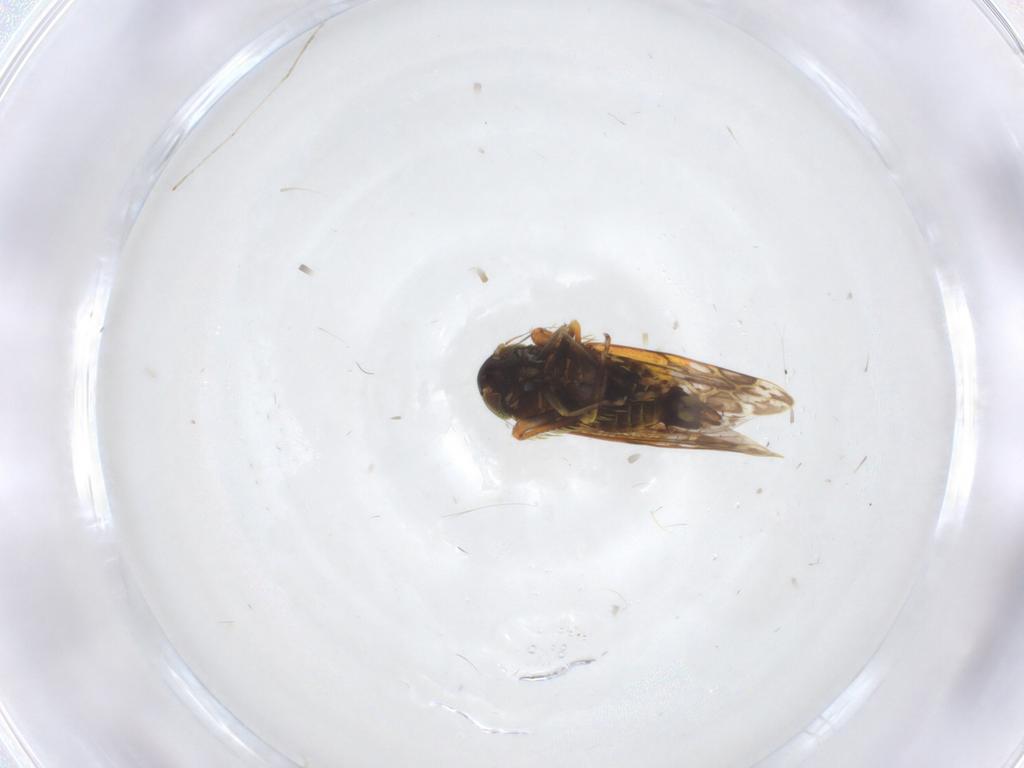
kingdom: Animalia
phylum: Arthropoda
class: Insecta
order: Hemiptera
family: Cicadellidae
